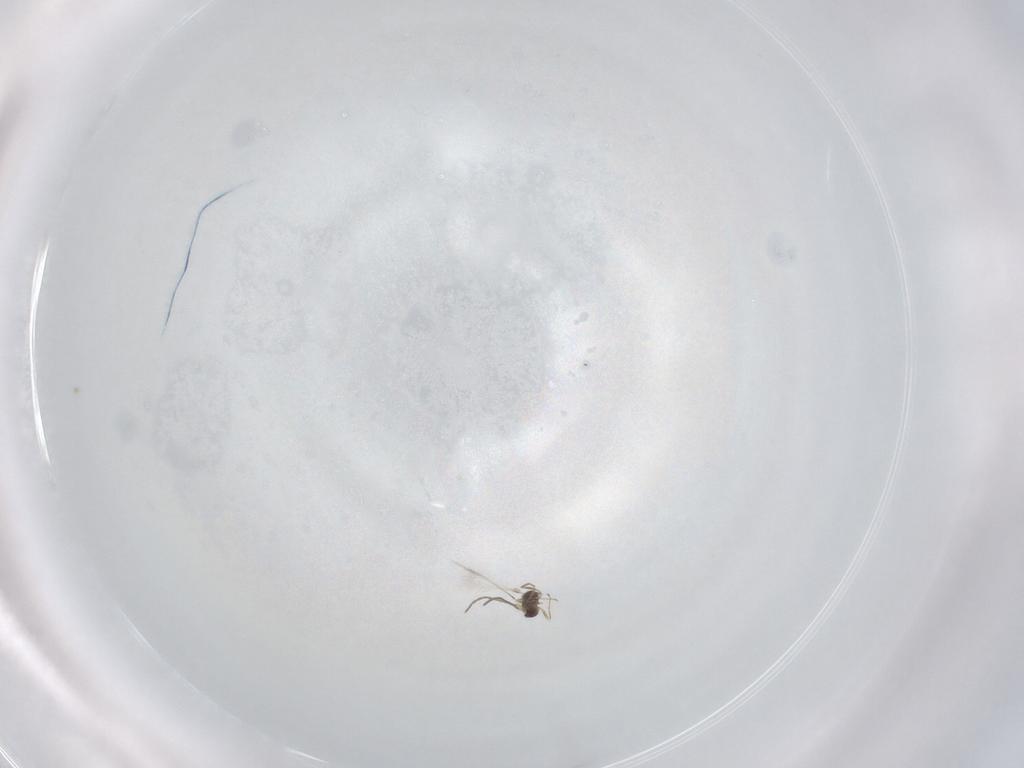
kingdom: Animalia
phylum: Arthropoda
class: Insecta
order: Hymenoptera
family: Mymaridae
